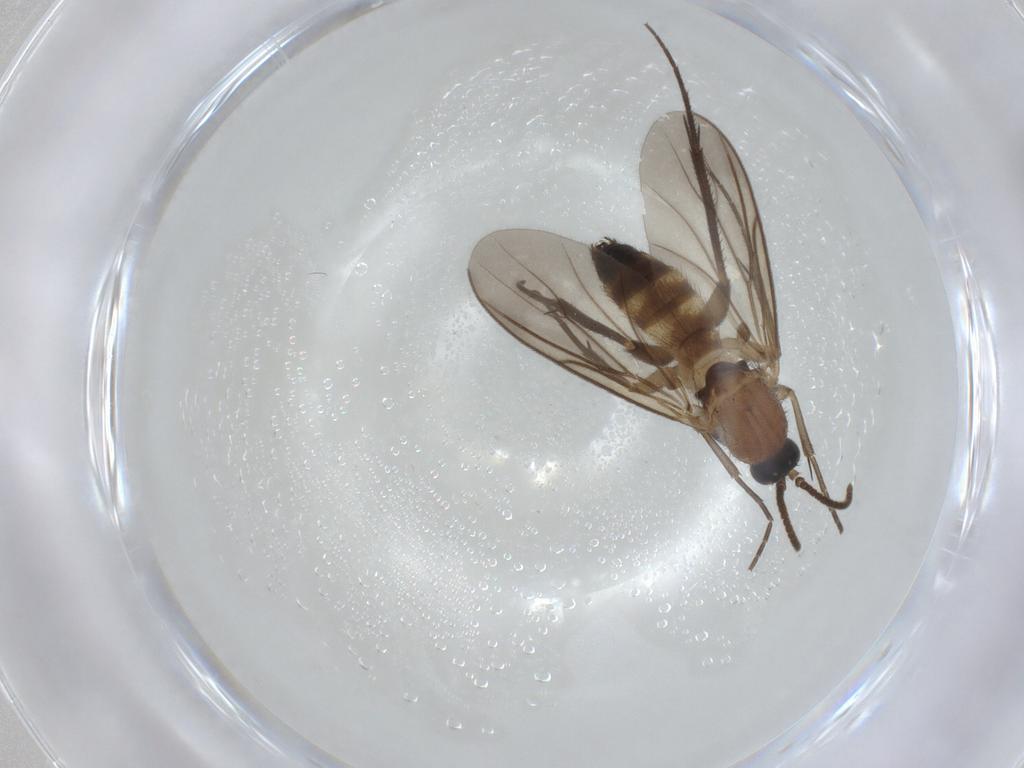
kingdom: Animalia
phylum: Arthropoda
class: Insecta
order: Diptera
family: Mycetophilidae
